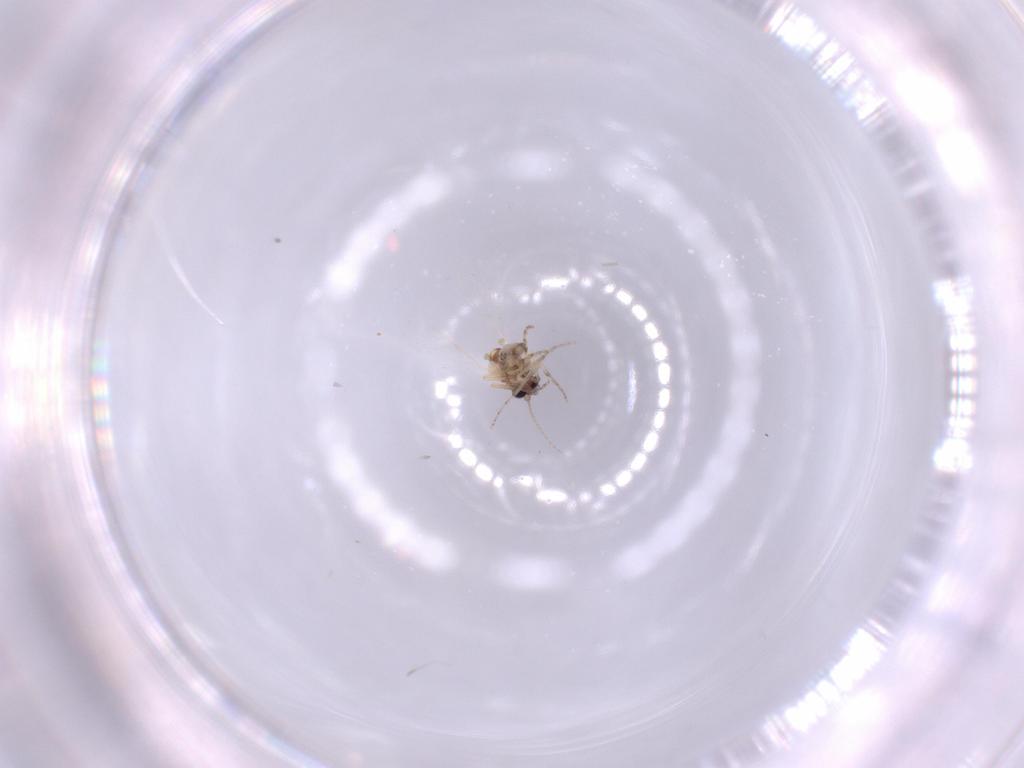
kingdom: Animalia
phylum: Arthropoda
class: Insecta
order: Diptera
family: Ceratopogonidae
